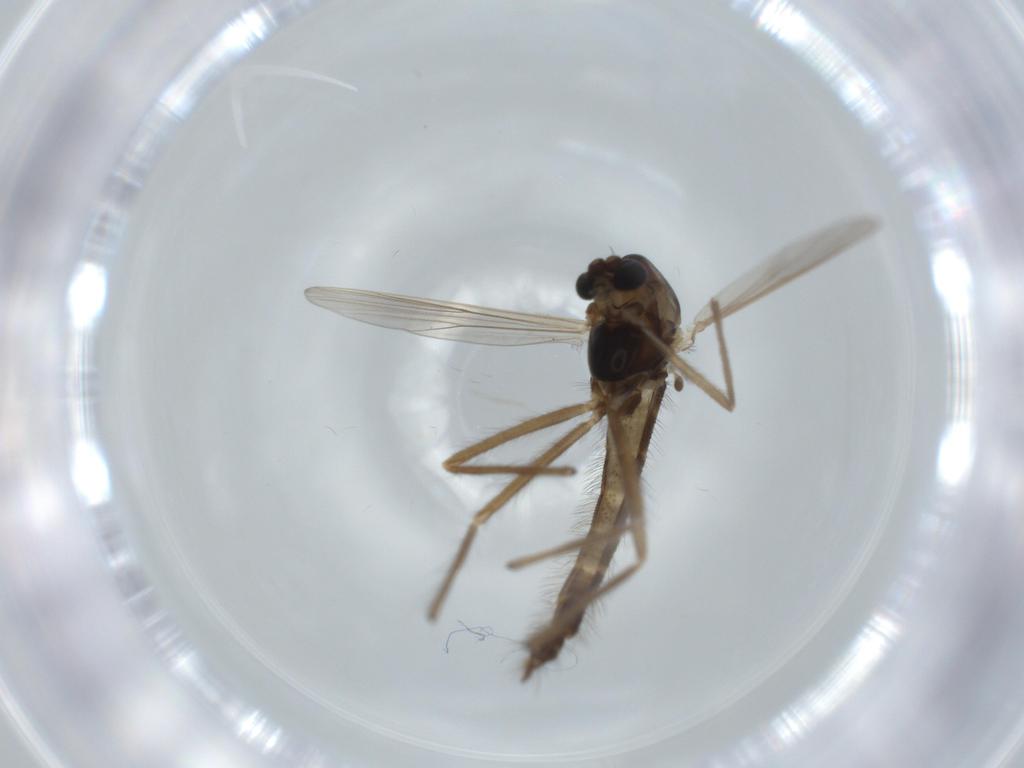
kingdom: Animalia
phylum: Arthropoda
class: Insecta
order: Diptera
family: Chironomidae
